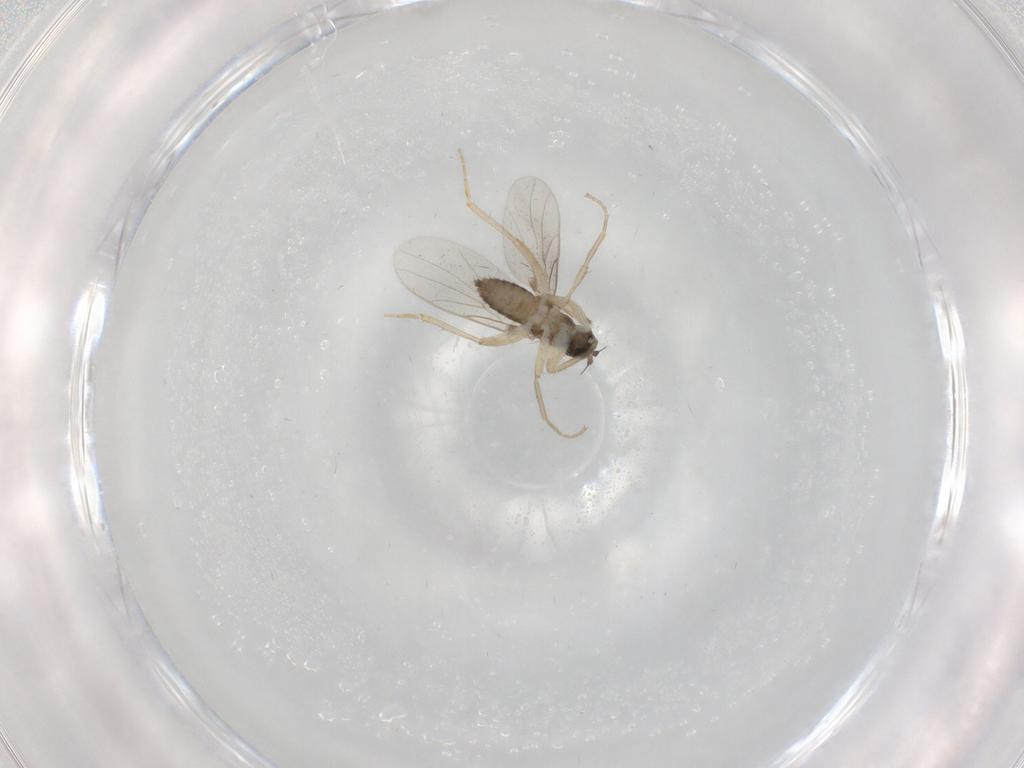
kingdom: Animalia
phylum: Arthropoda
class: Insecta
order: Diptera
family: Hybotidae
